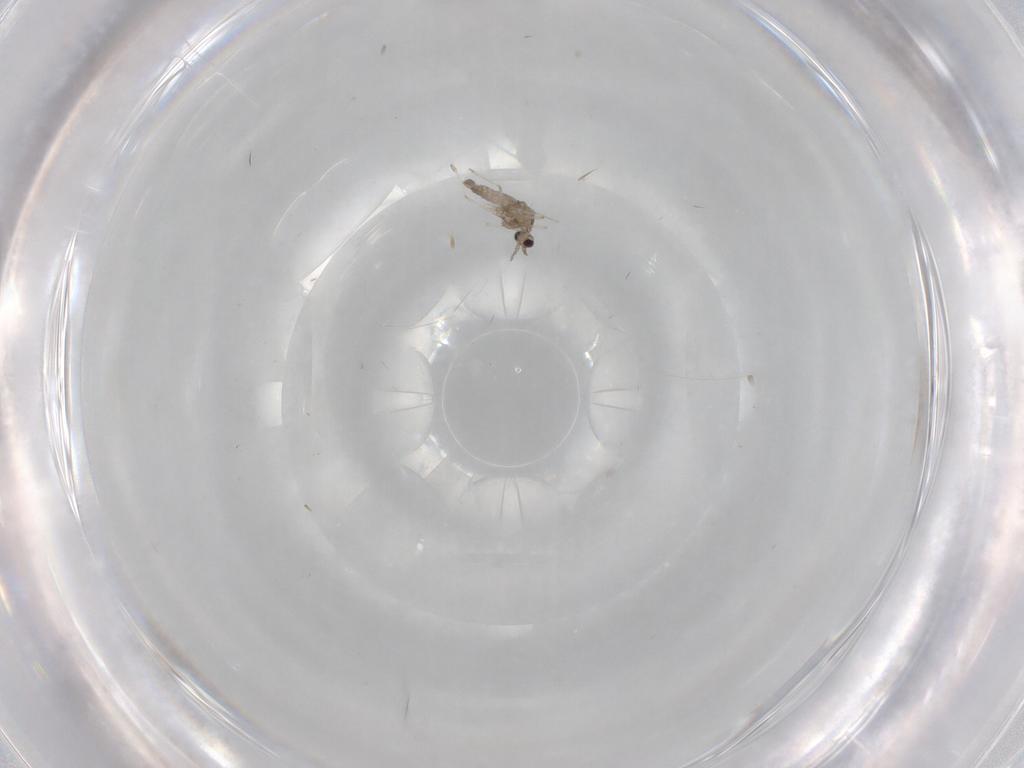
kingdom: Animalia
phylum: Arthropoda
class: Insecta
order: Diptera
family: Cecidomyiidae
